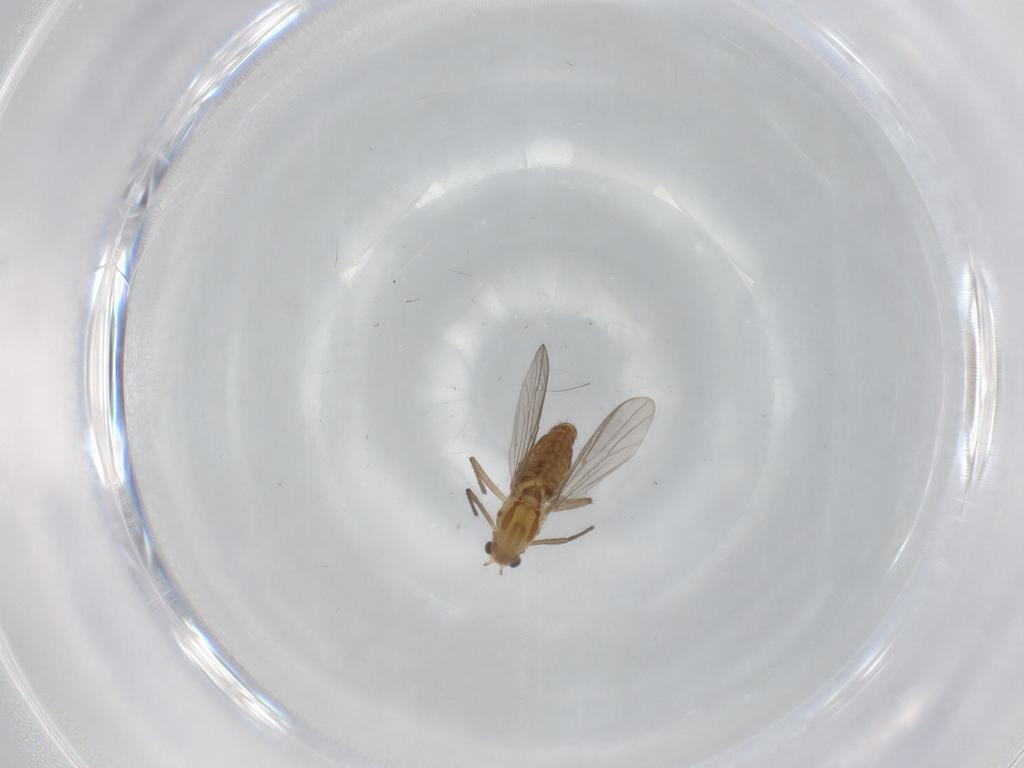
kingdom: Animalia
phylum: Arthropoda
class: Insecta
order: Diptera
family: Chironomidae
